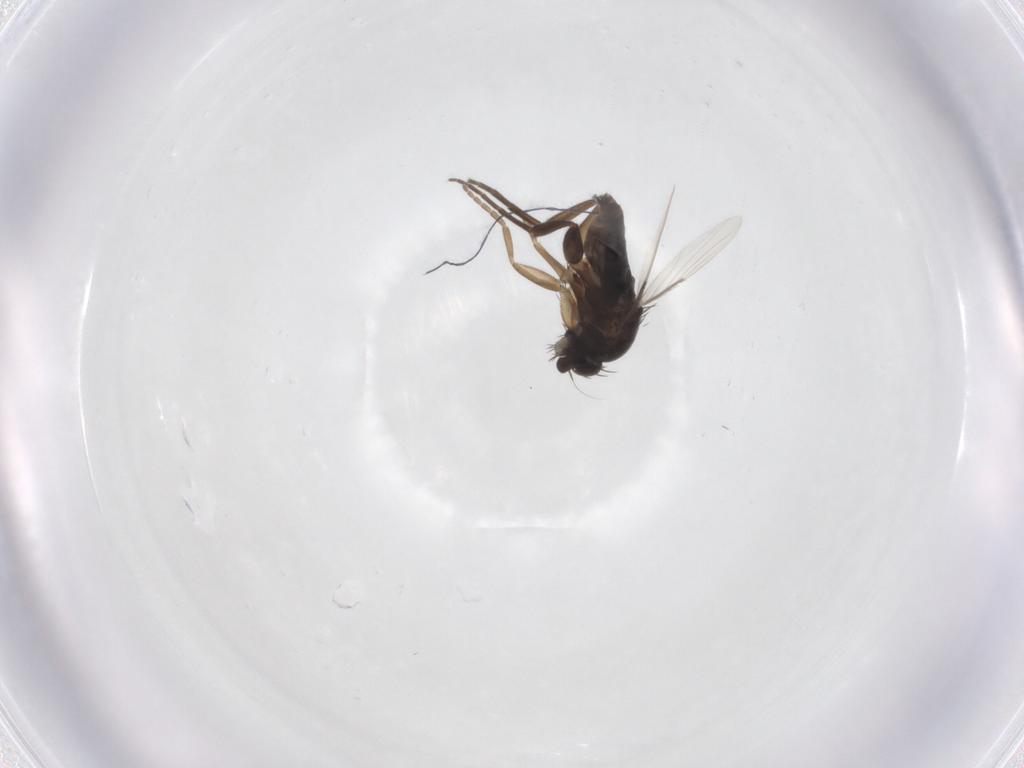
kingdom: Animalia
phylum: Arthropoda
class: Insecta
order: Diptera
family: Phoridae
